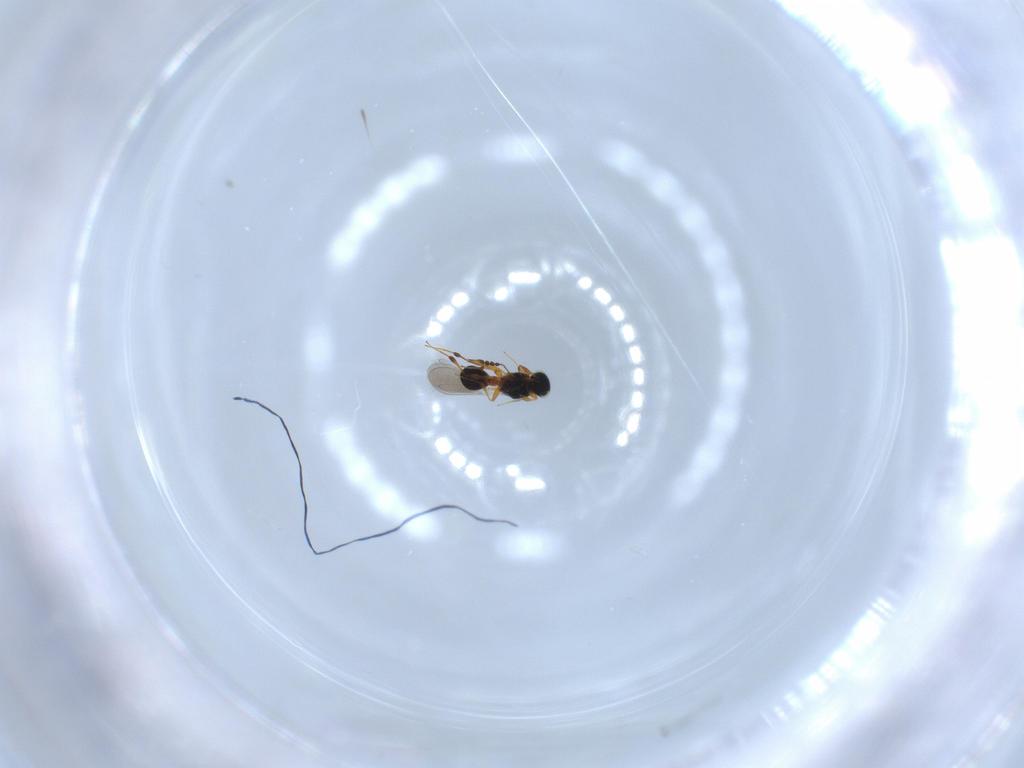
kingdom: Animalia
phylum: Arthropoda
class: Insecta
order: Hymenoptera
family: Platygastridae
